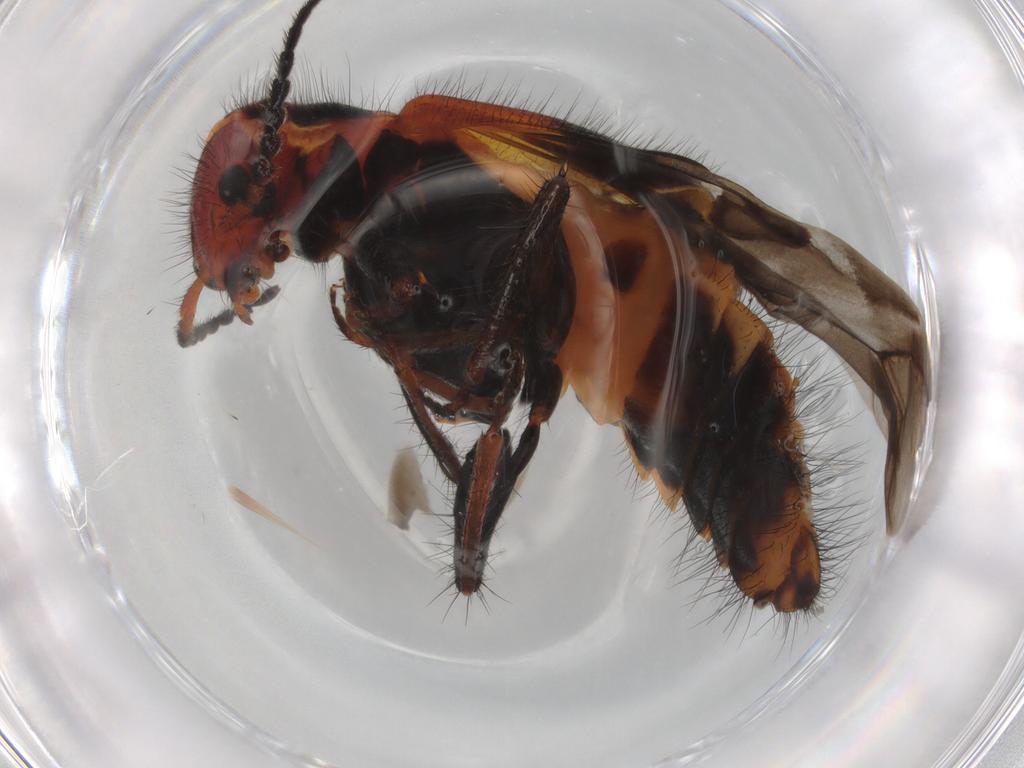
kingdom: Animalia
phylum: Arthropoda
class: Insecta
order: Coleoptera
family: Melyridae
